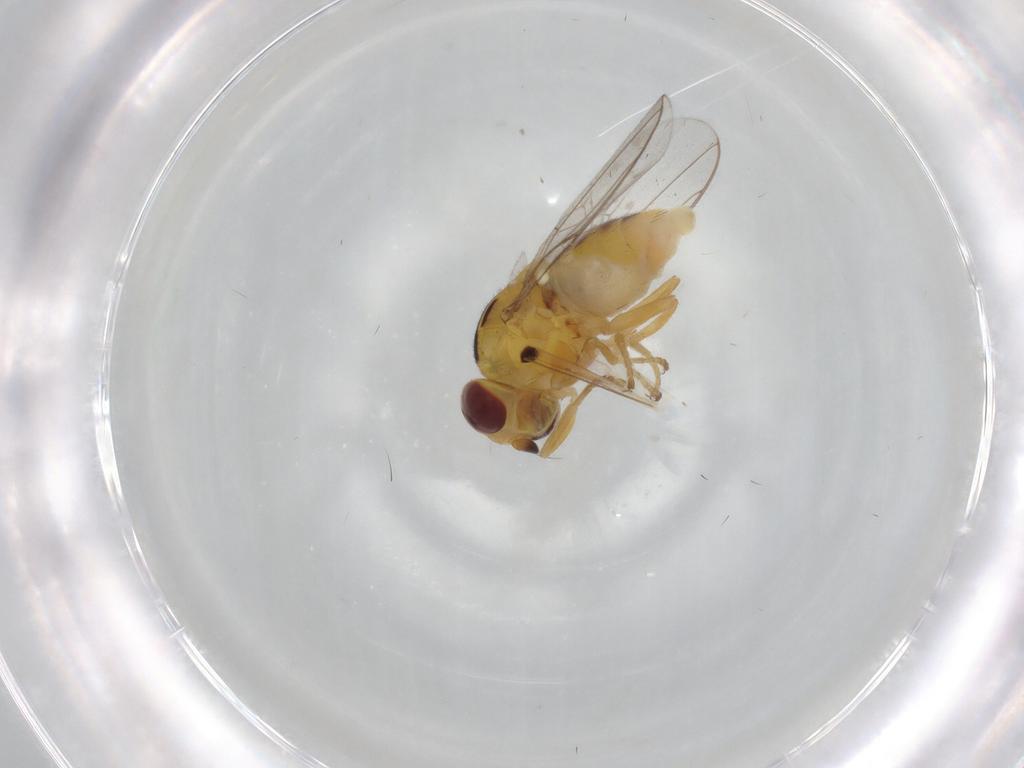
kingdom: Animalia
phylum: Arthropoda
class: Insecta
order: Diptera
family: Chloropidae
